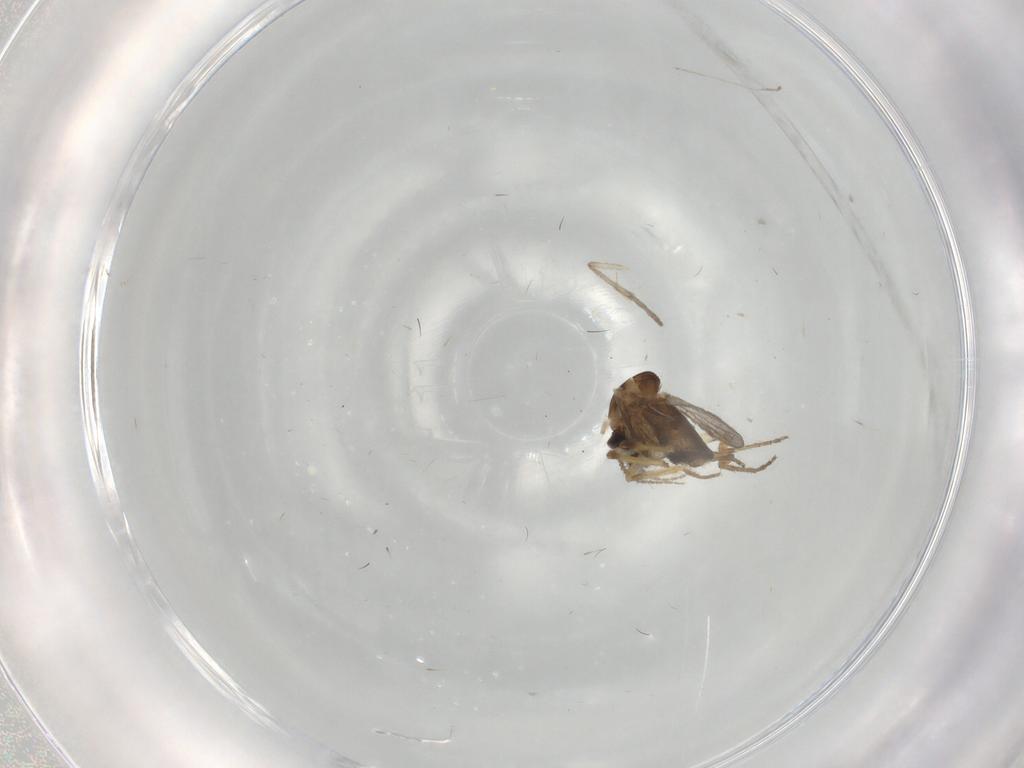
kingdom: Animalia
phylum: Arthropoda
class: Insecta
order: Diptera
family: Ceratopogonidae
